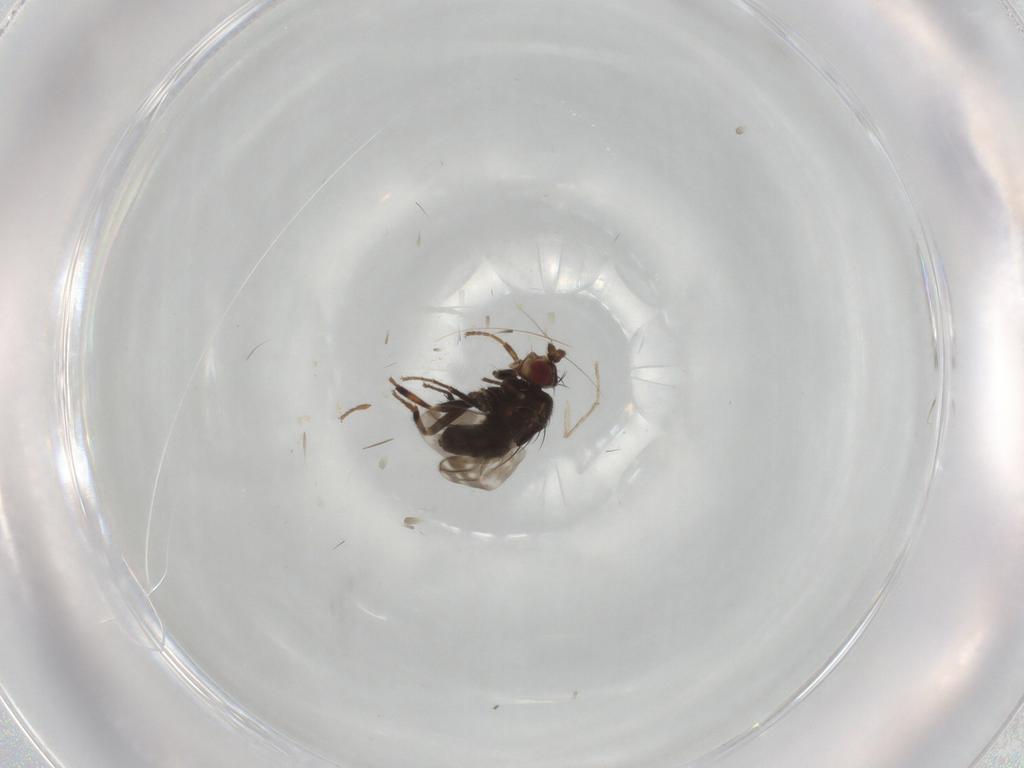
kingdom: Animalia
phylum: Arthropoda
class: Insecta
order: Diptera
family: Sphaeroceridae
